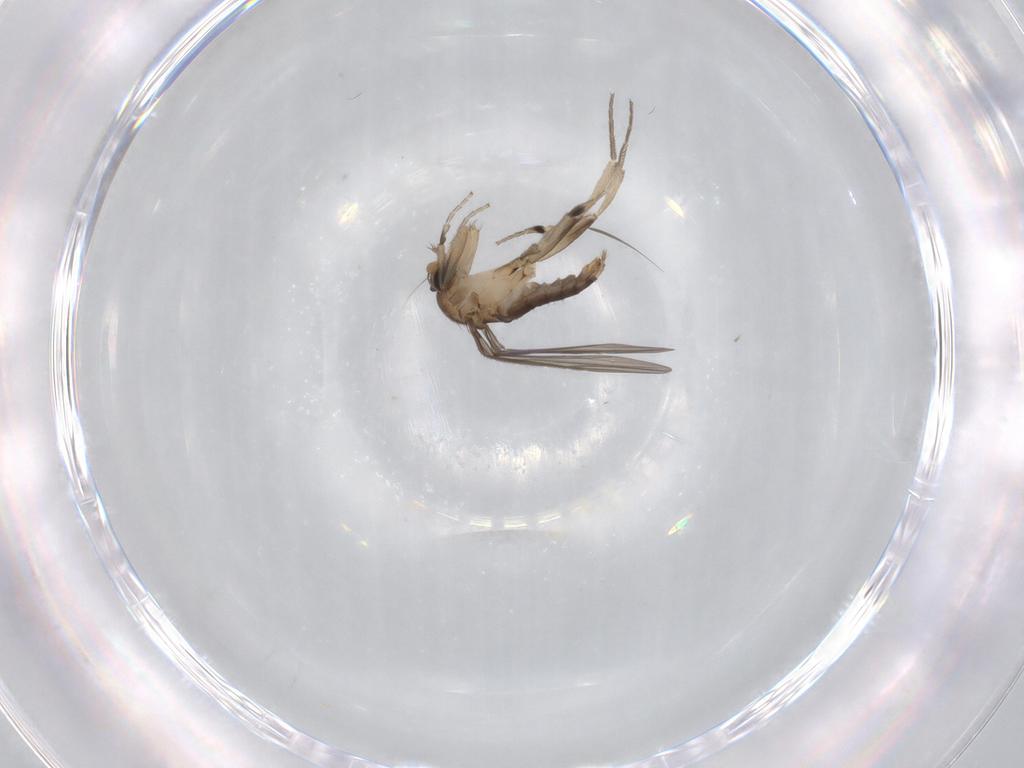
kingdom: Animalia
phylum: Arthropoda
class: Insecta
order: Diptera
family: Phoridae
